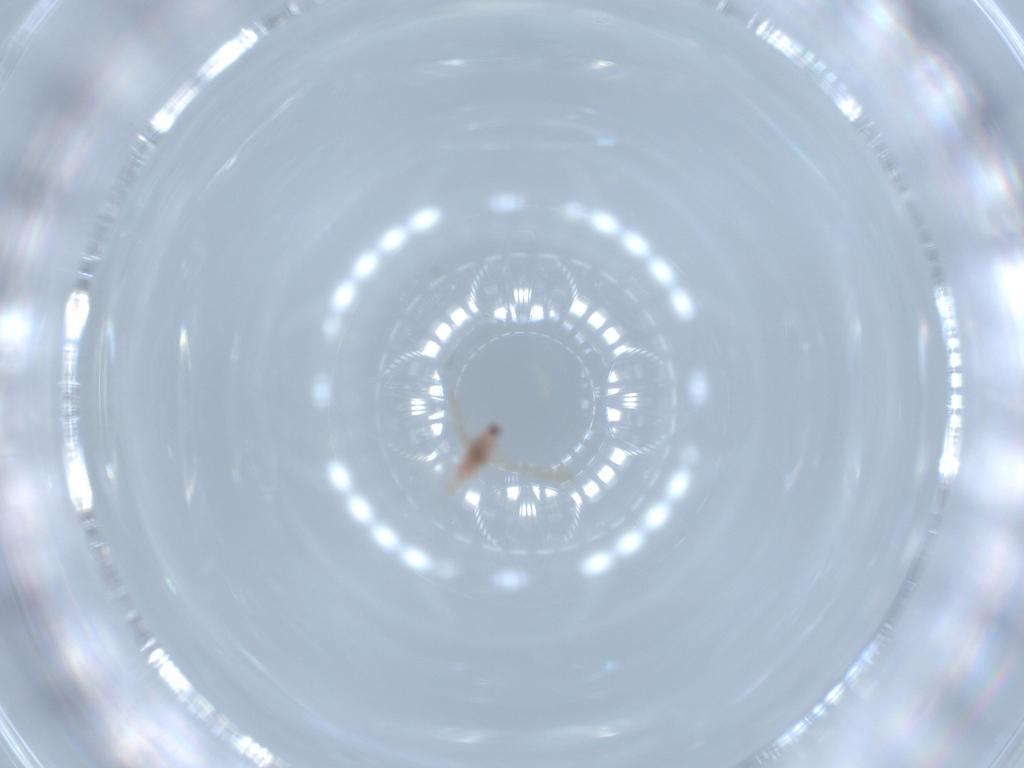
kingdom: Animalia
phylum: Arthropoda
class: Insecta
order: Hemiptera
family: Diaspididae
